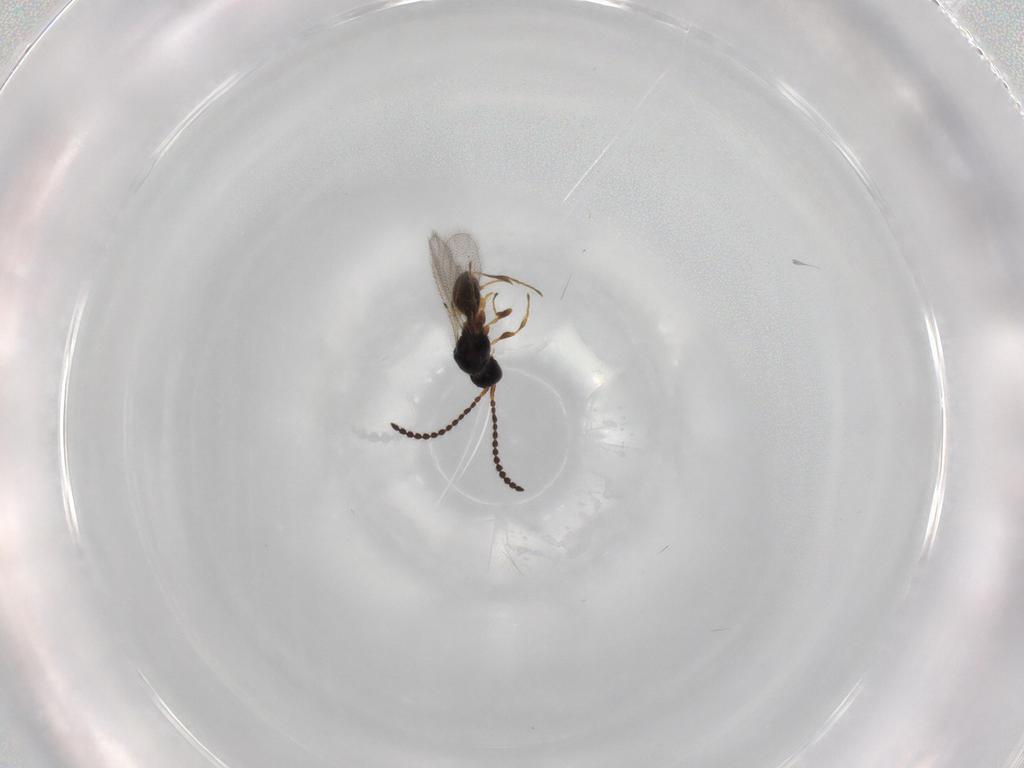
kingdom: Animalia
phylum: Arthropoda
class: Insecta
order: Hymenoptera
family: Diapriidae
